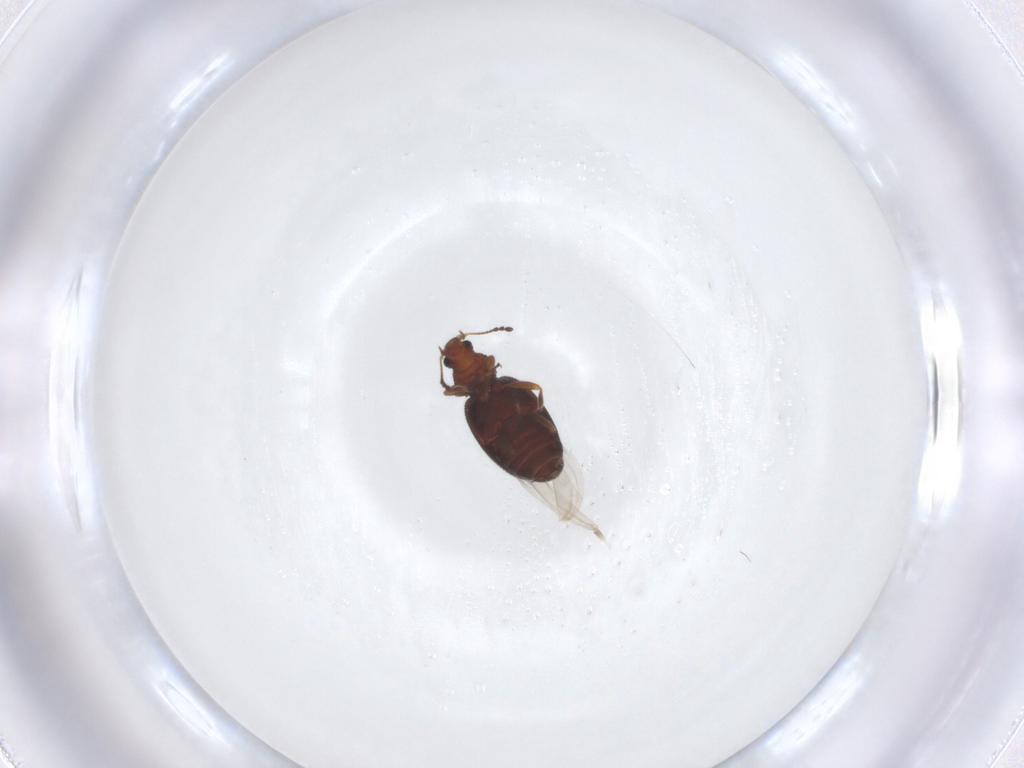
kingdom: Animalia
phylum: Arthropoda
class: Insecta
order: Coleoptera
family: Latridiidae
